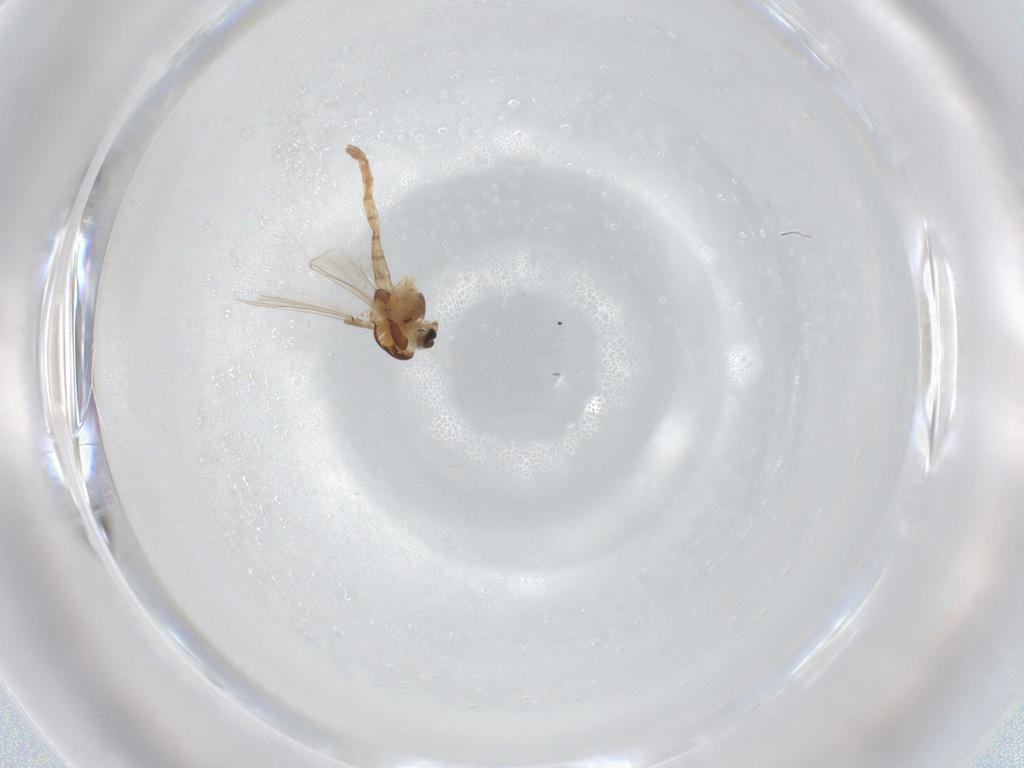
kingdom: Animalia
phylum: Arthropoda
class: Insecta
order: Diptera
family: Chironomidae
